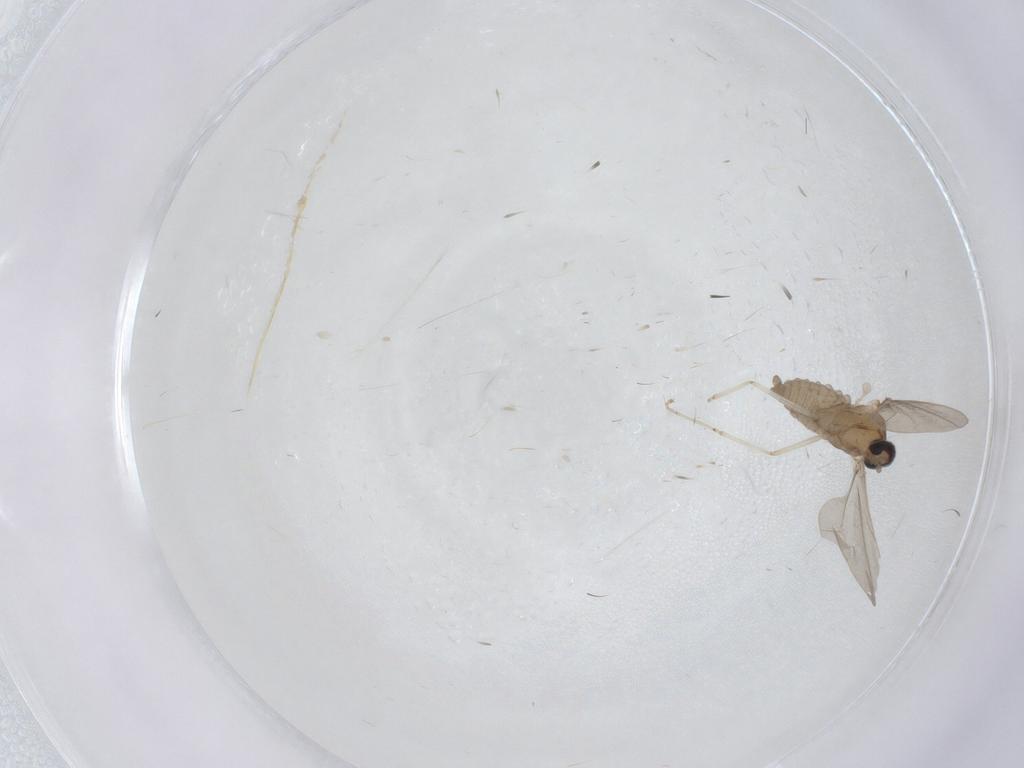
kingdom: Animalia
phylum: Arthropoda
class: Insecta
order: Diptera
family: Cecidomyiidae
